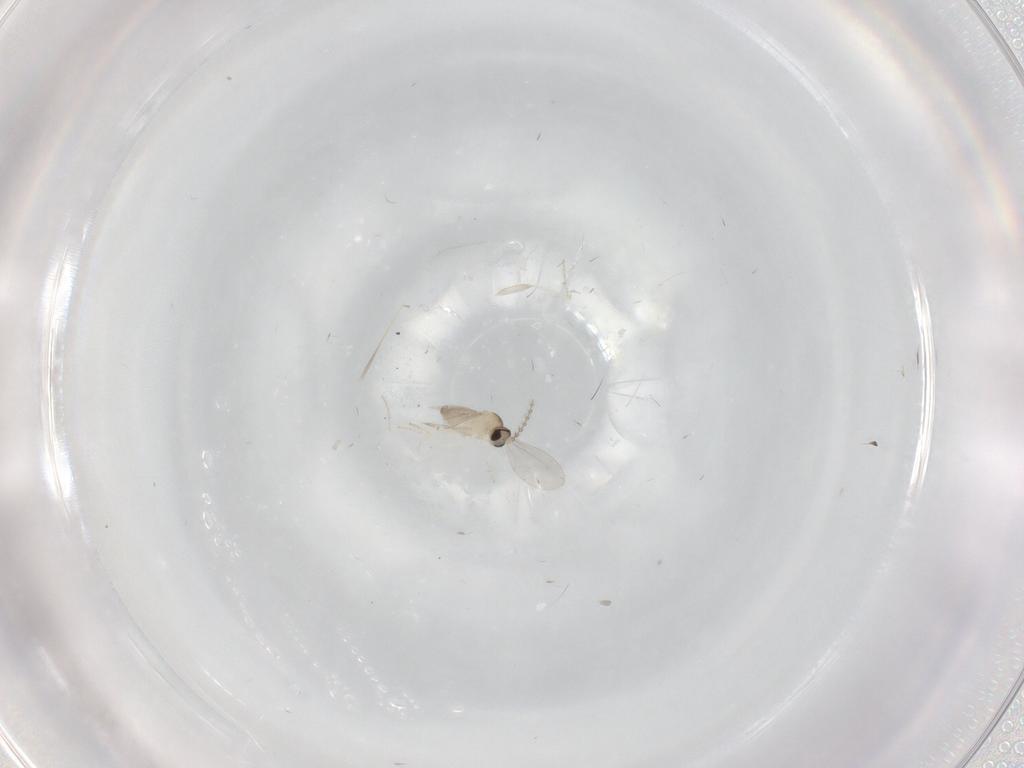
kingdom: Animalia
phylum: Arthropoda
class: Insecta
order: Diptera
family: Cecidomyiidae
